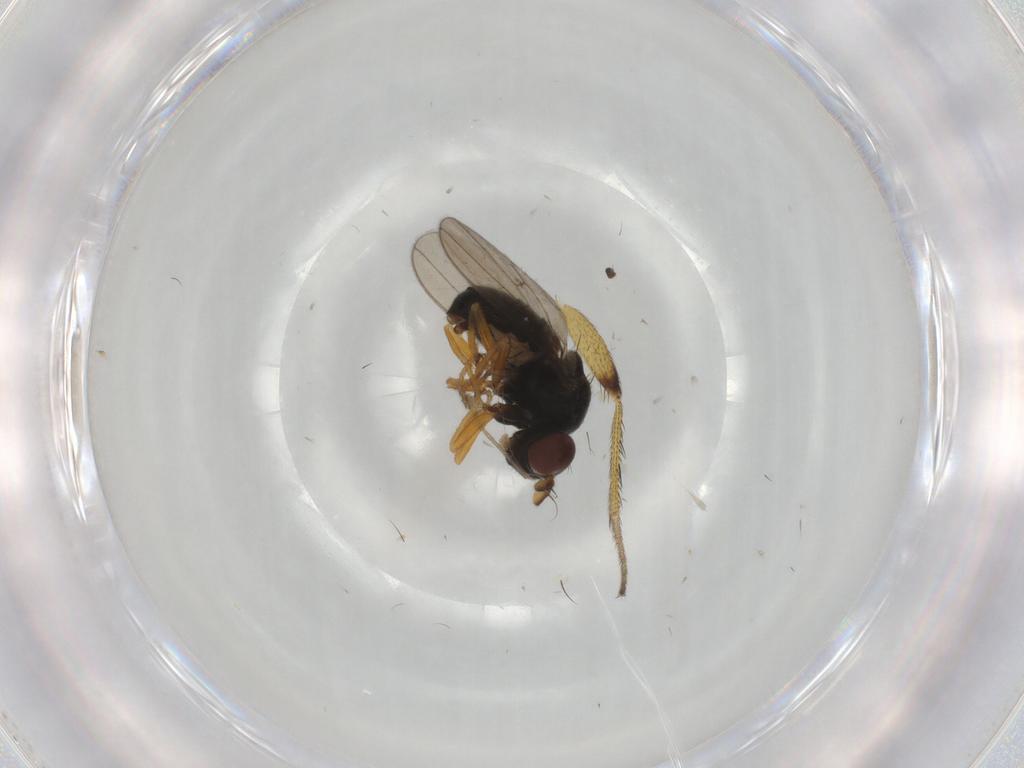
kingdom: Animalia
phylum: Arthropoda
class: Insecta
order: Diptera
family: Ephydridae
